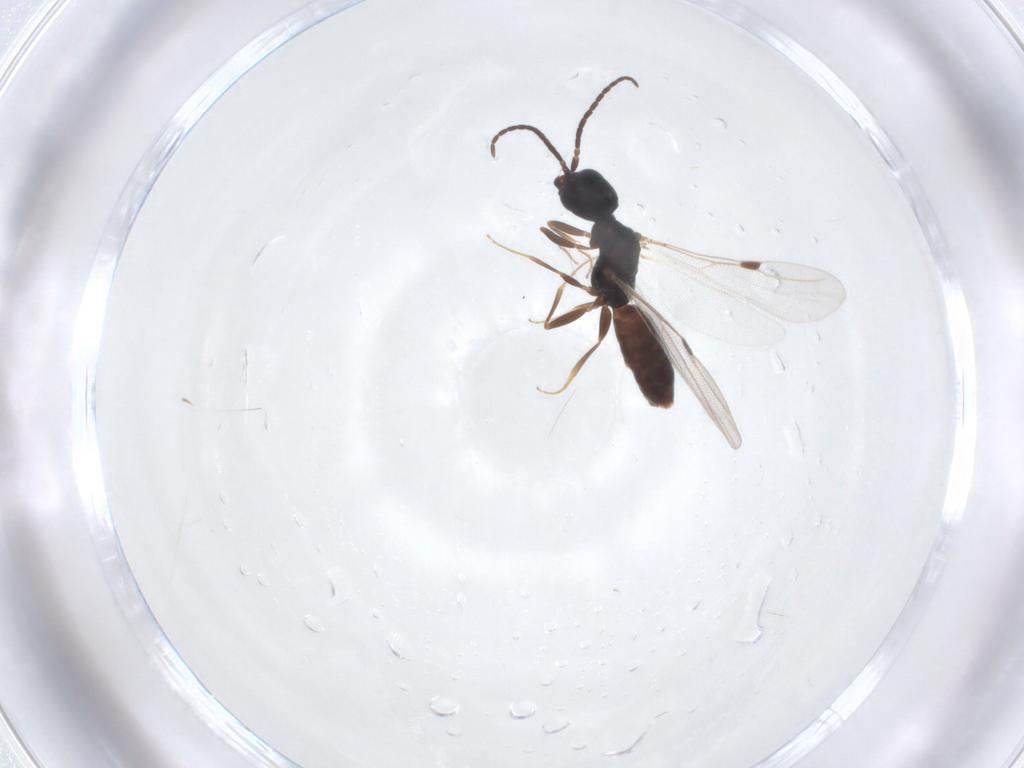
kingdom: Animalia
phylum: Arthropoda
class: Insecta
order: Hymenoptera
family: Bethylidae
